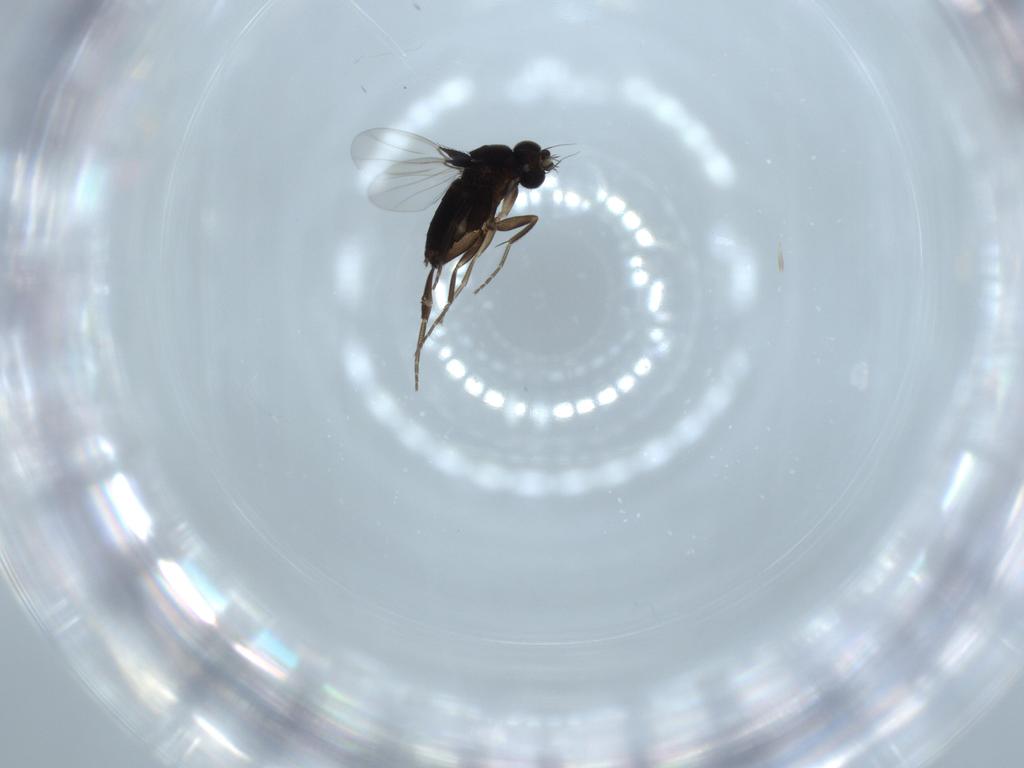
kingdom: Animalia
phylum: Arthropoda
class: Insecta
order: Diptera
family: Phoridae
